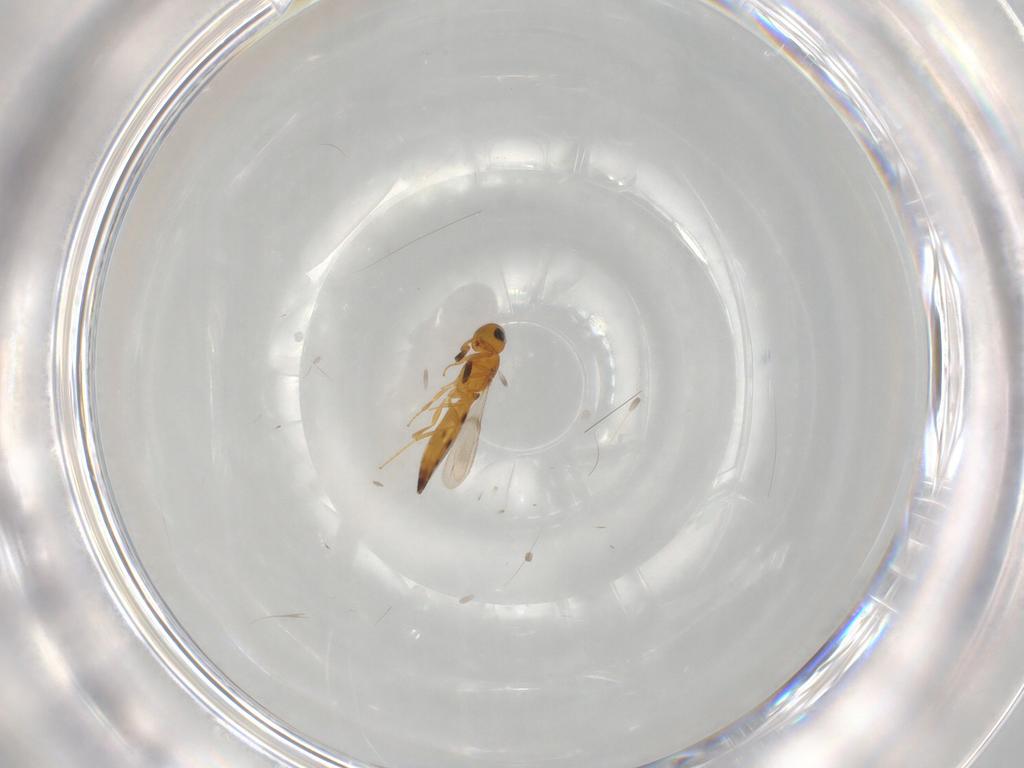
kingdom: Animalia
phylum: Arthropoda
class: Insecta
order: Hymenoptera
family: Scelionidae
